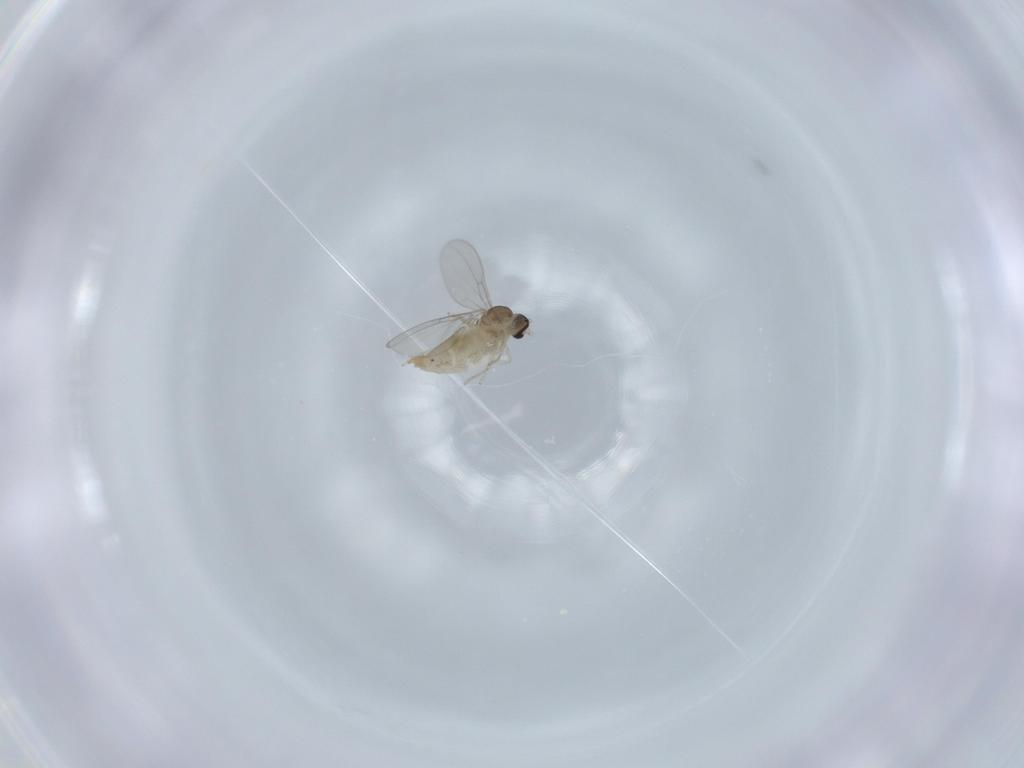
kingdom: Animalia
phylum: Arthropoda
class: Insecta
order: Diptera
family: Cecidomyiidae
